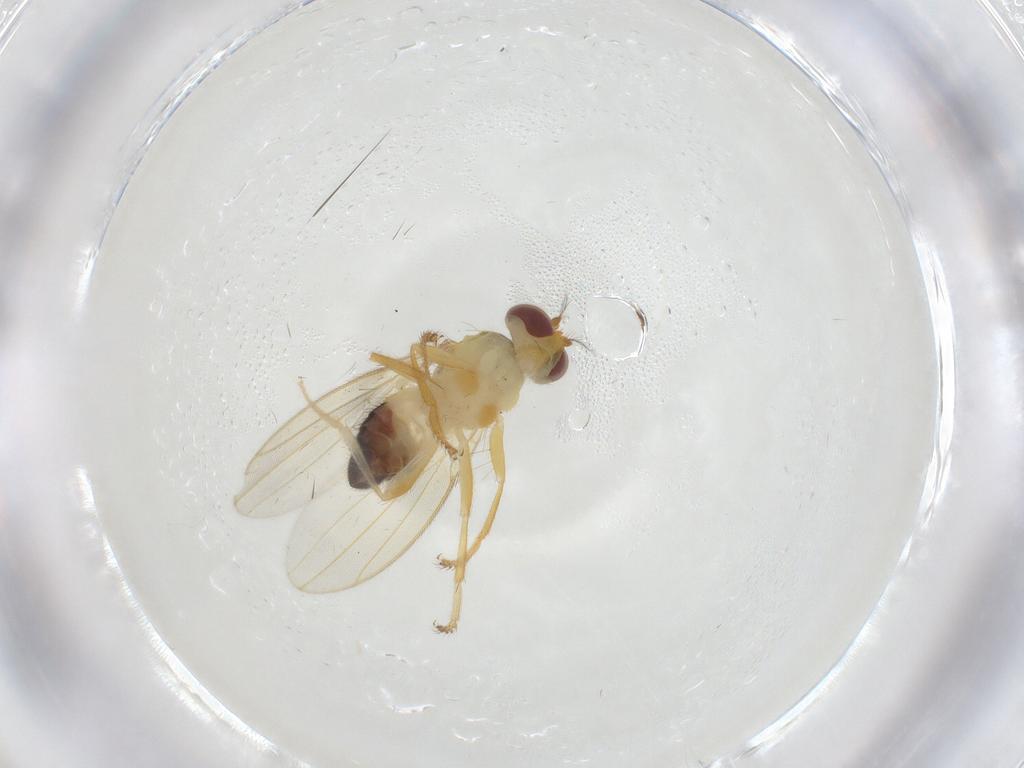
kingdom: Animalia
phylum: Arthropoda
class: Insecta
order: Diptera
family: Periscelididae
